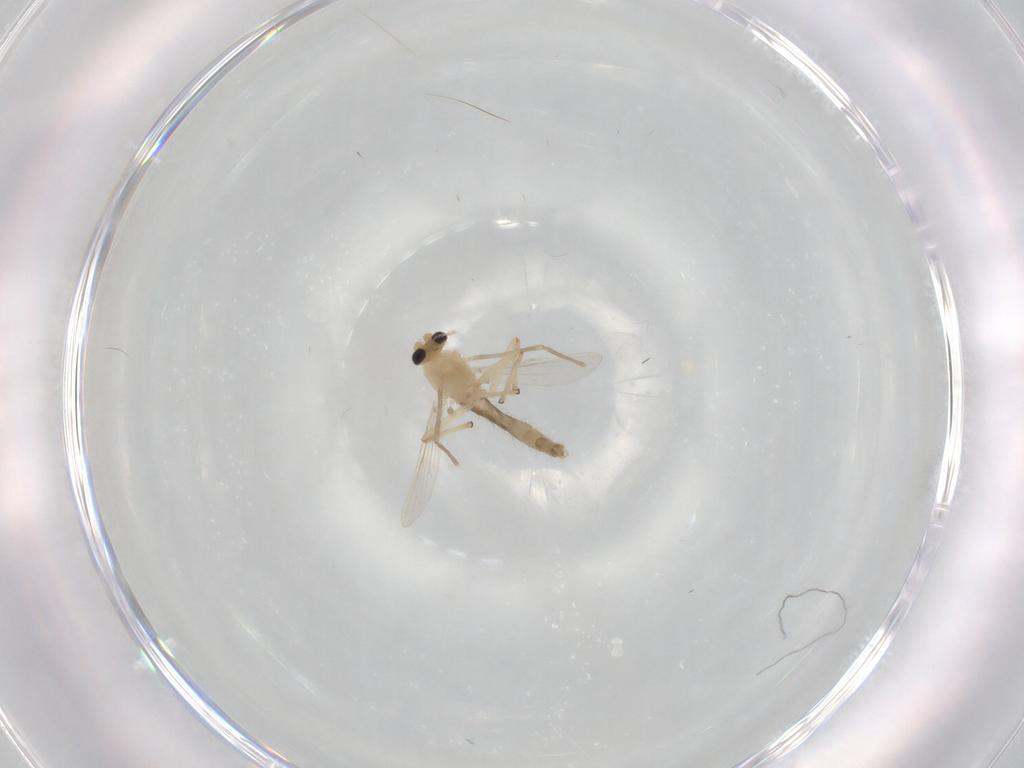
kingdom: Animalia
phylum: Arthropoda
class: Insecta
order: Diptera
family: Chironomidae
